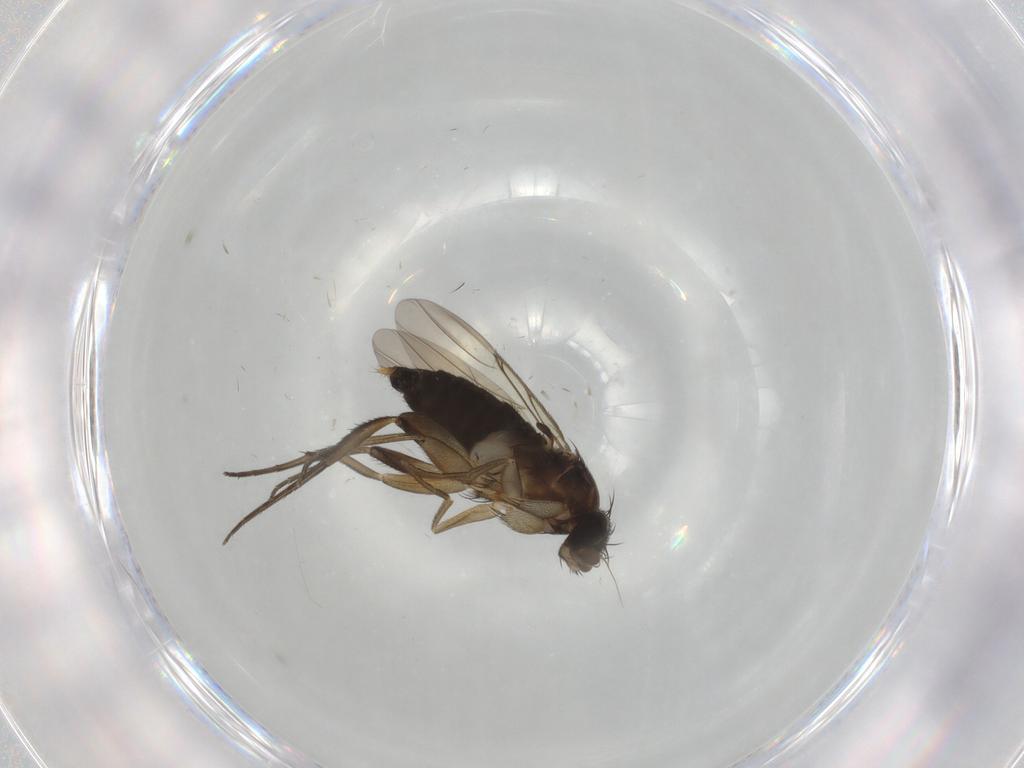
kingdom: Animalia
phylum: Arthropoda
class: Insecta
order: Diptera
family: Phoridae
